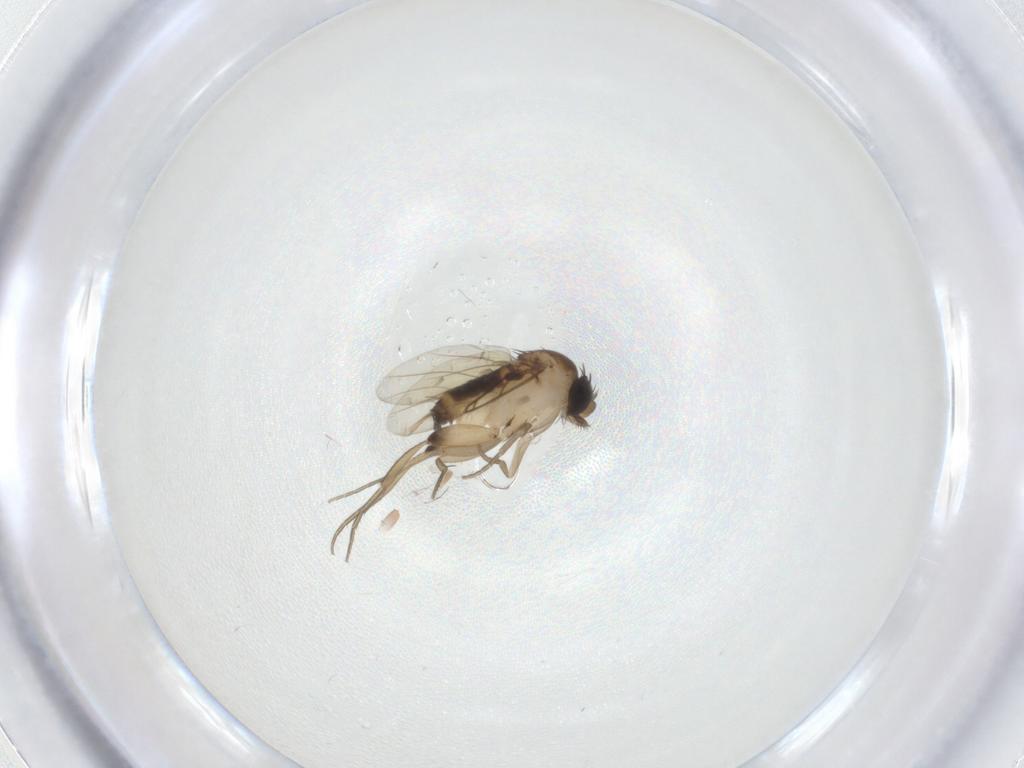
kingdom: Animalia
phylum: Arthropoda
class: Insecta
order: Diptera
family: Phoridae
